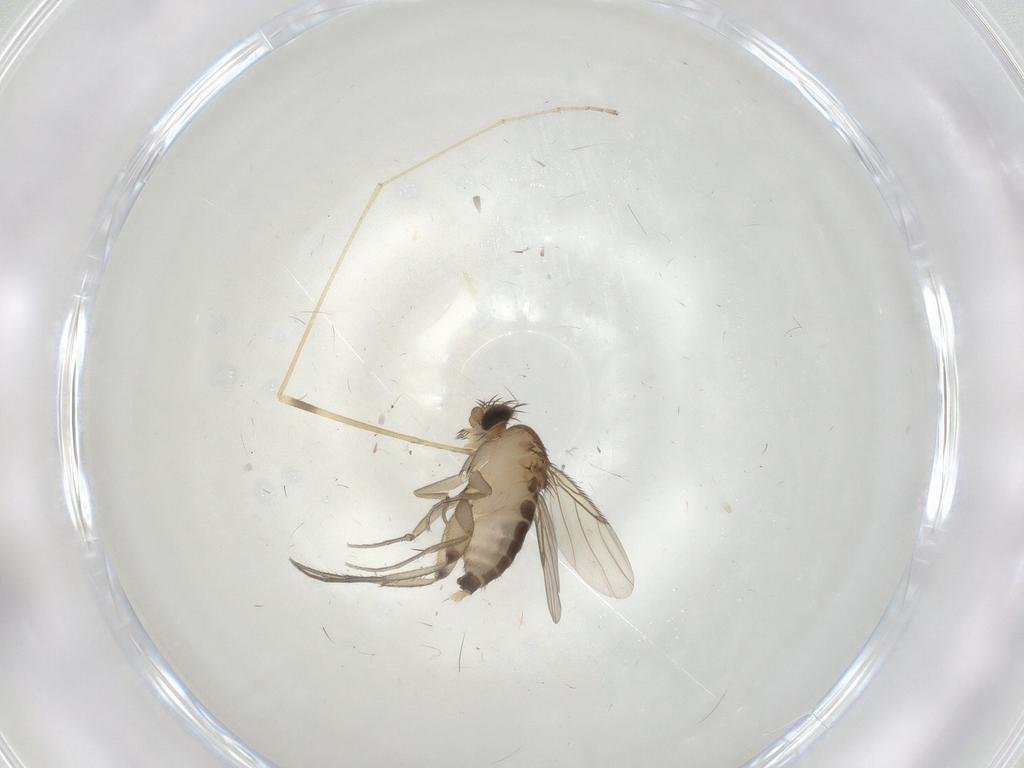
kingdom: Animalia
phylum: Arthropoda
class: Insecta
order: Diptera
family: Limoniidae
